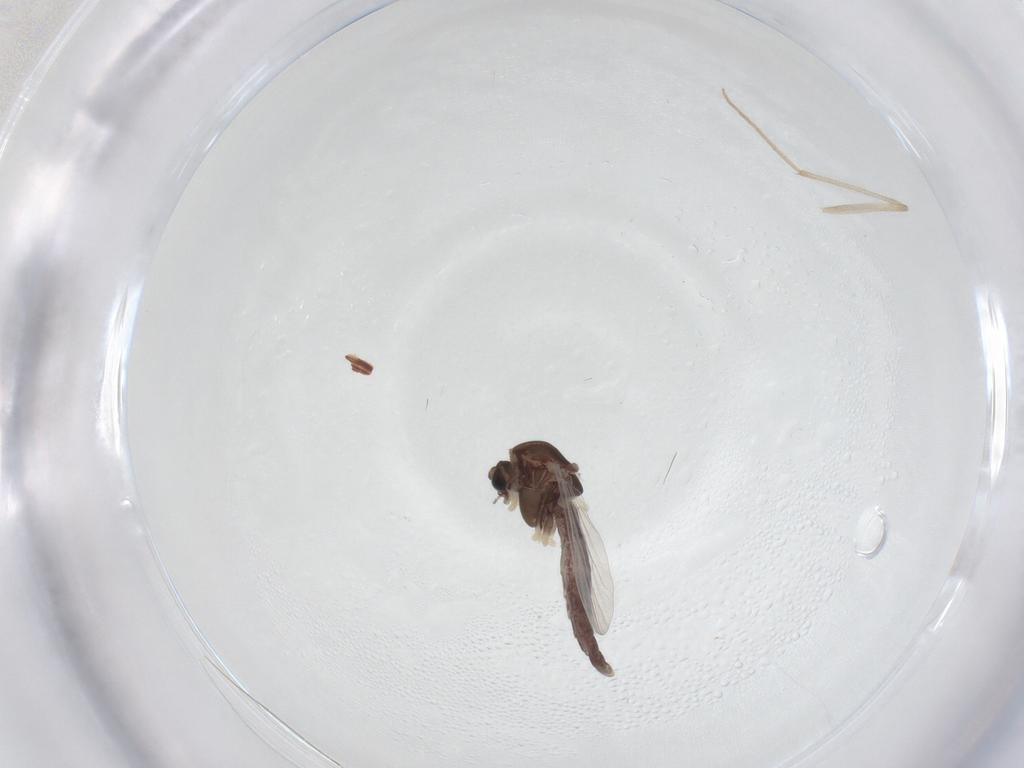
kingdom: Animalia
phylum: Arthropoda
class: Insecta
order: Diptera
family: Chironomidae
